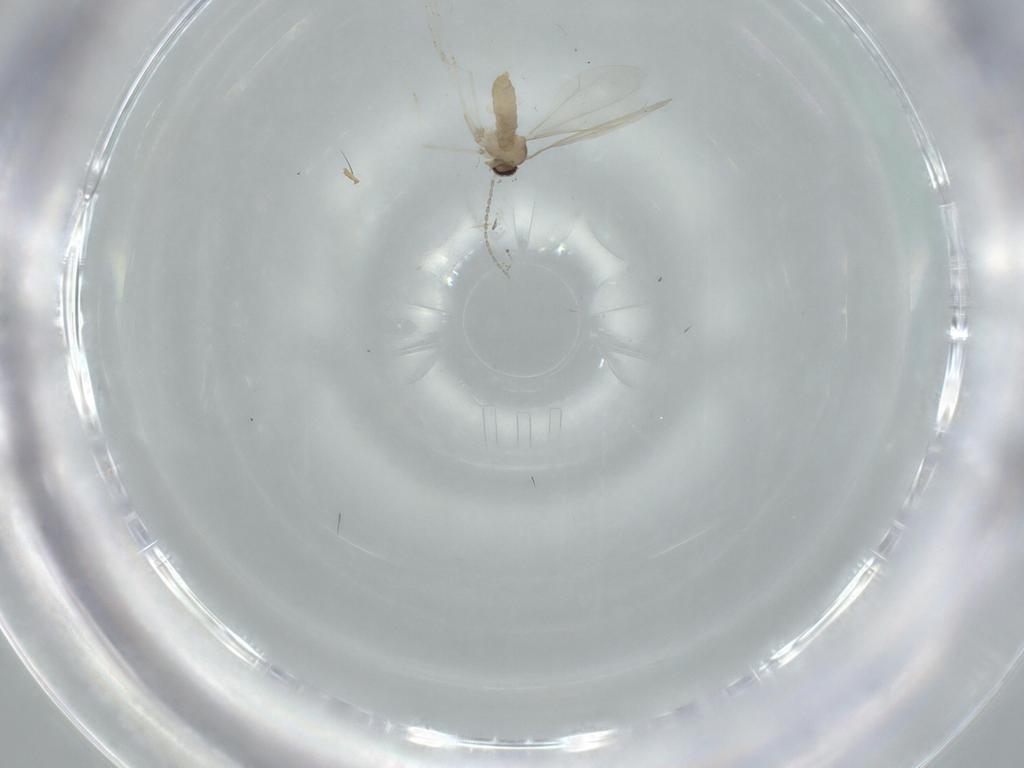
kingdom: Animalia
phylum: Arthropoda
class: Insecta
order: Diptera
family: Cecidomyiidae
